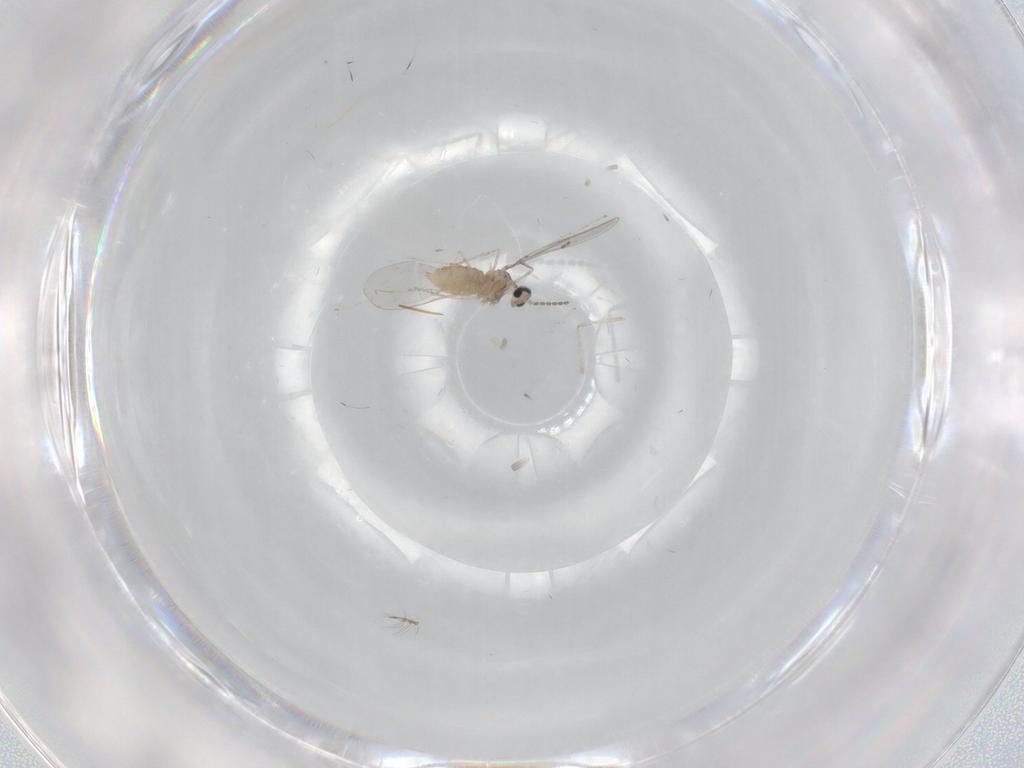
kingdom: Animalia
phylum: Arthropoda
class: Insecta
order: Diptera
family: Cecidomyiidae
